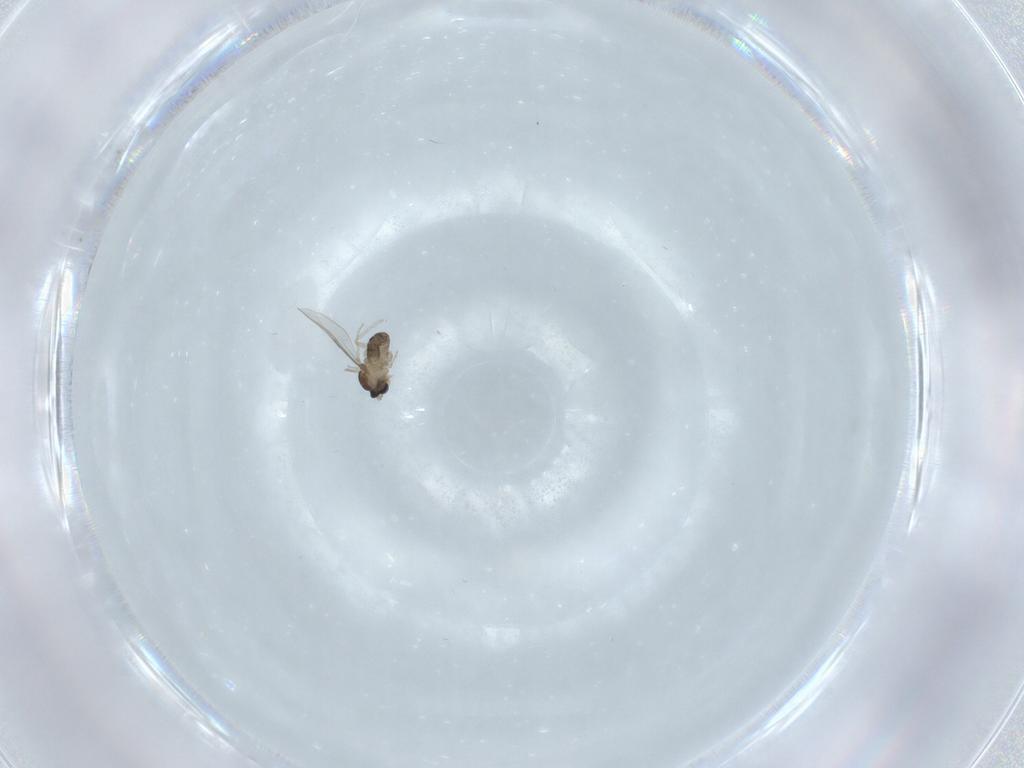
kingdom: Animalia
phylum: Arthropoda
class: Insecta
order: Diptera
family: Cecidomyiidae
